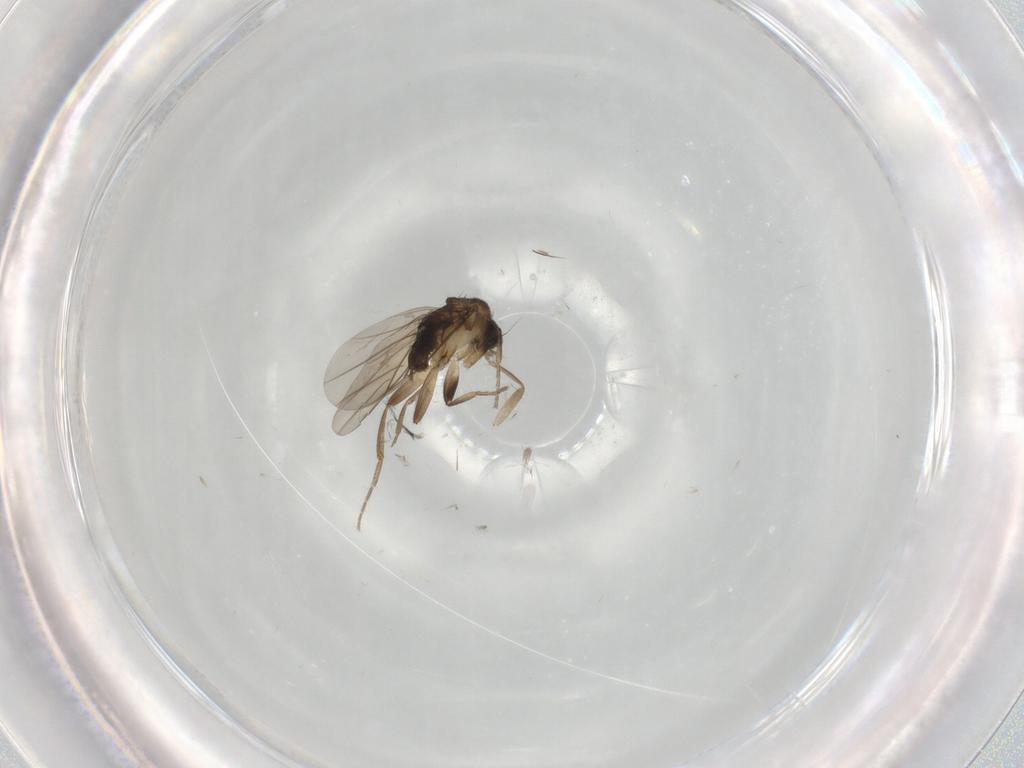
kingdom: Animalia
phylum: Arthropoda
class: Insecta
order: Diptera
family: Phoridae
